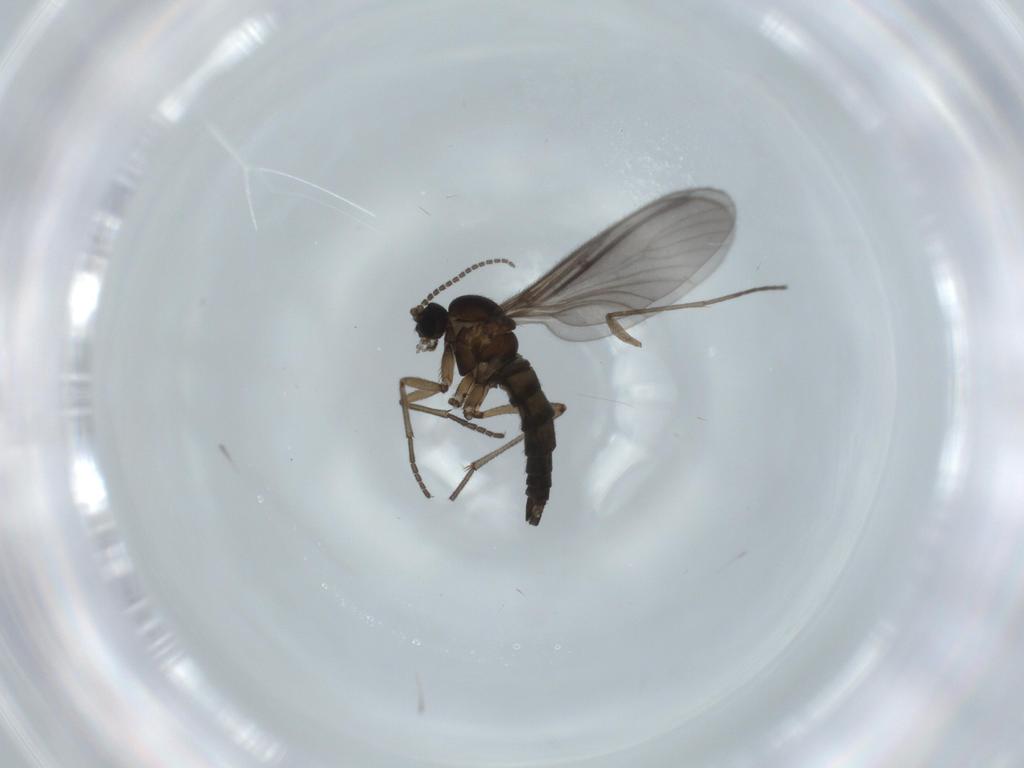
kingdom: Animalia
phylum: Arthropoda
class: Insecta
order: Diptera
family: Sciaridae
